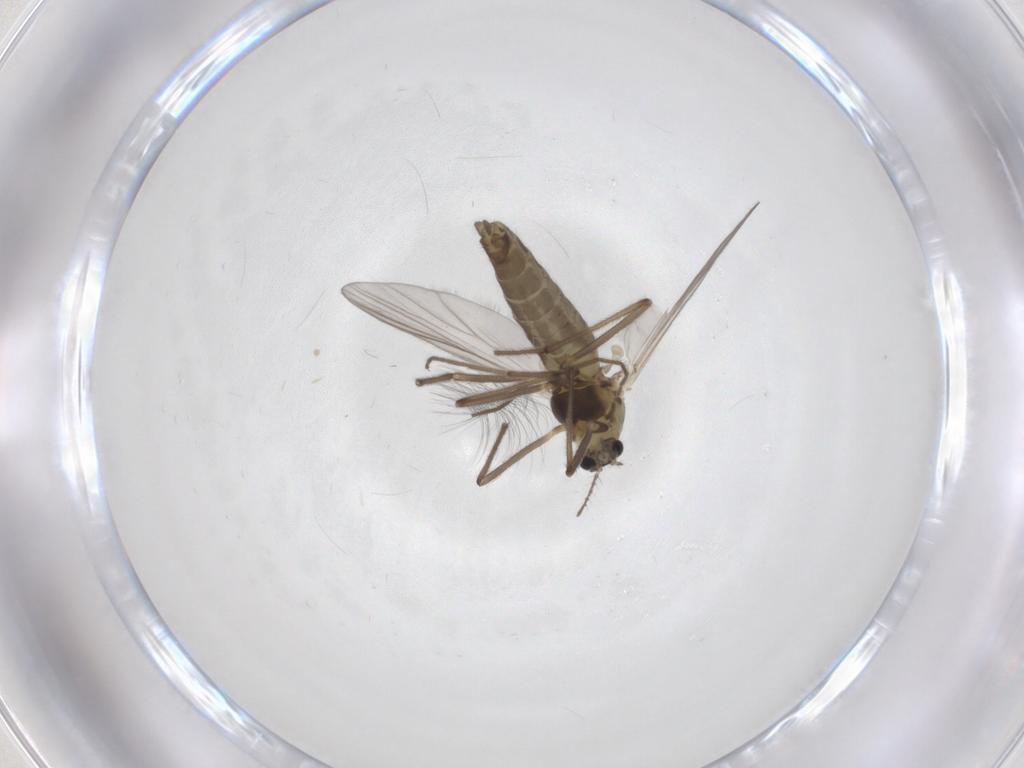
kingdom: Animalia
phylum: Arthropoda
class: Insecta
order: Diptera
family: Chironomidae
